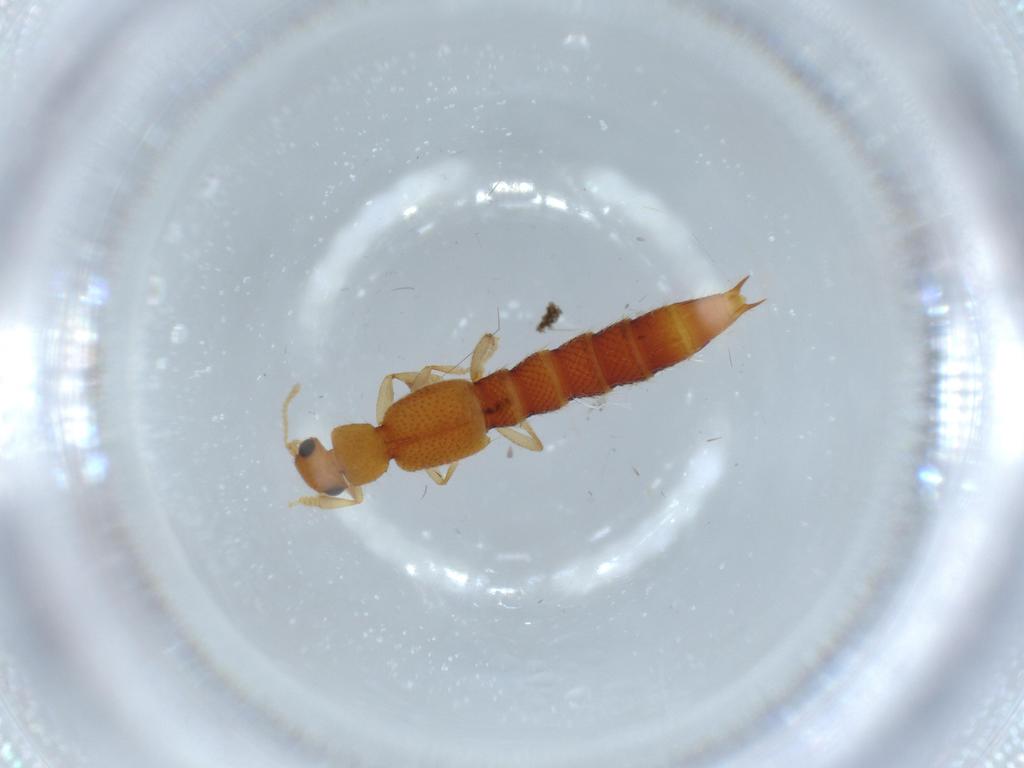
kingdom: Animalia
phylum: Arthropoda
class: Insecta
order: Coleoptera
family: Staphylinidae
